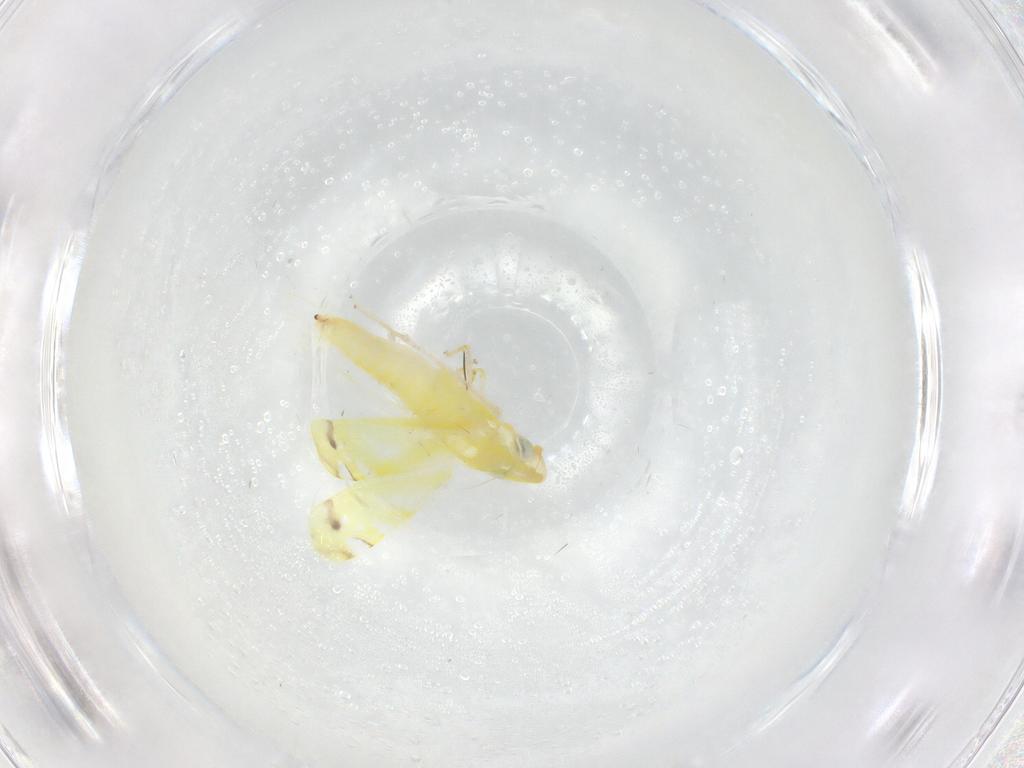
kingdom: Animalia
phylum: Arthropoda
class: Insecta
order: Hemiptera
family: Cicadellidae
